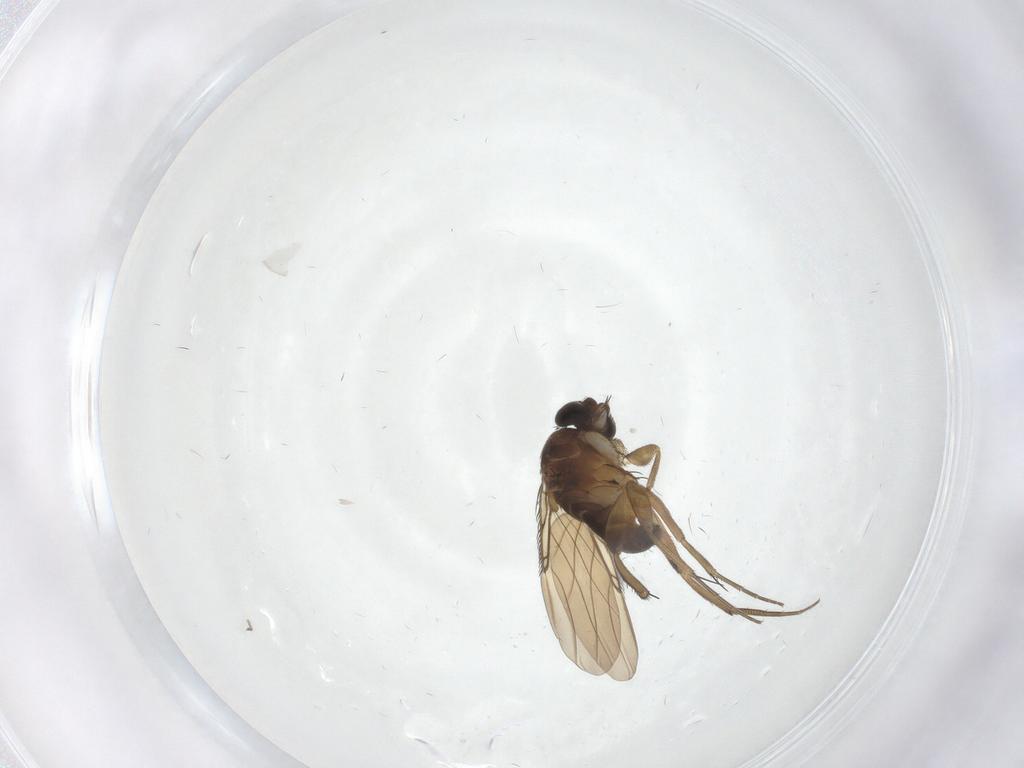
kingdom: Animalia
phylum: Arthropoda
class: Insecta
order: Diptera
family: Phoridae
